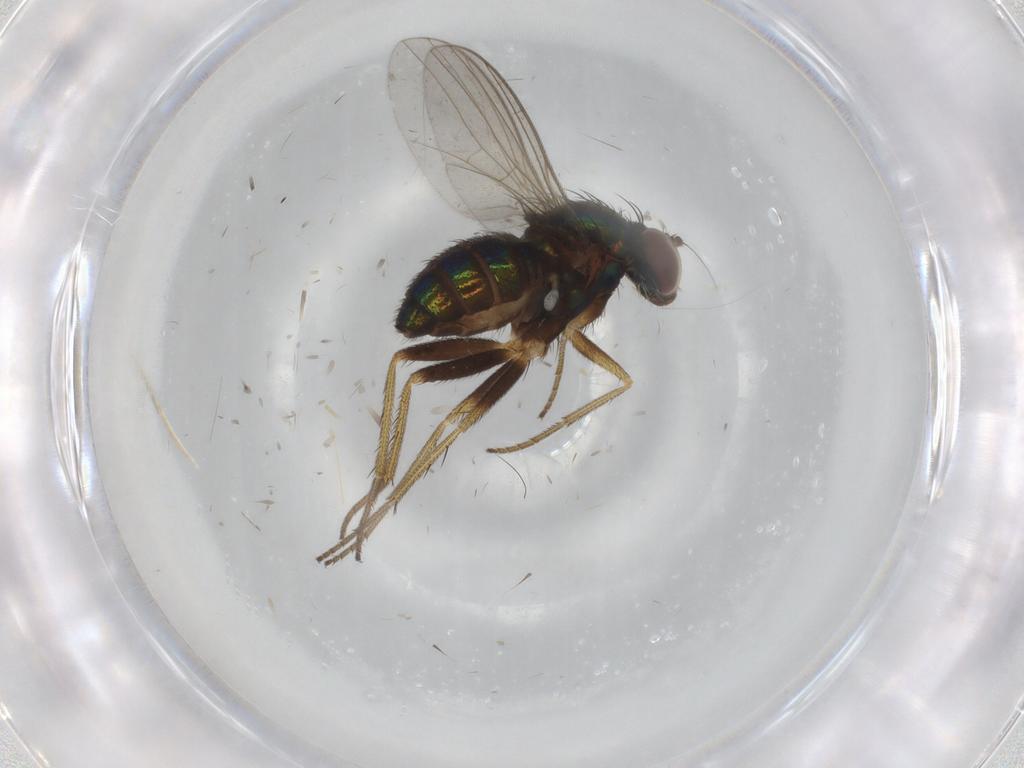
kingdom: Animalia
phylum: Arthropoda
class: Insecta
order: Diptera
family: Cecidomyiidae
